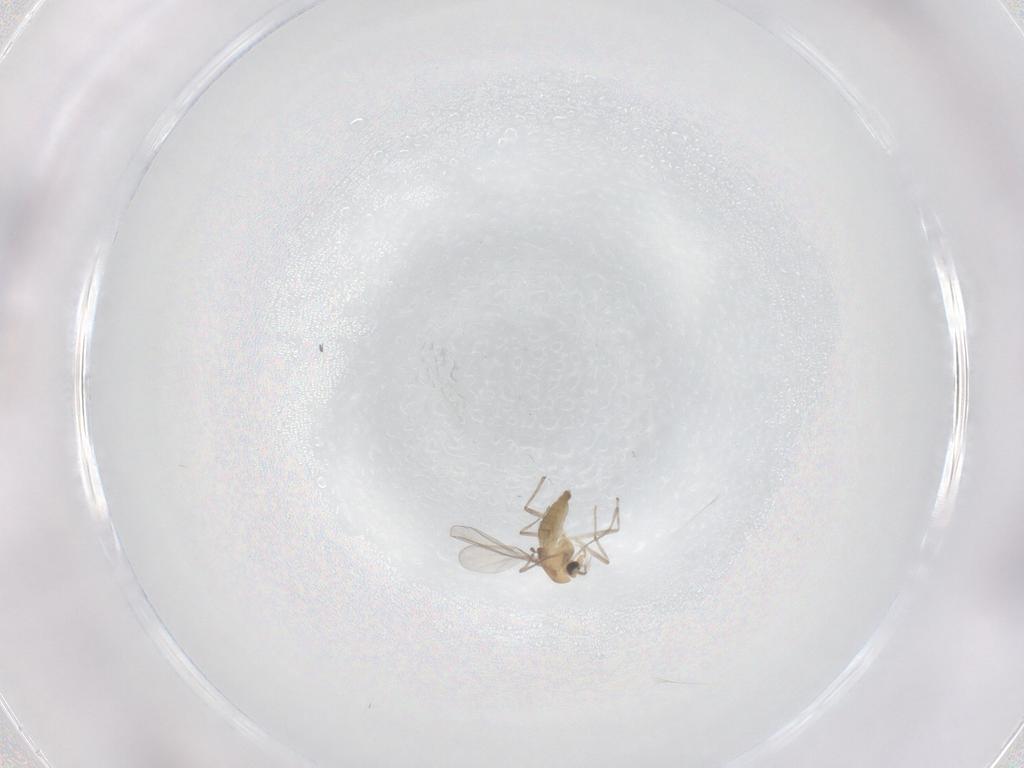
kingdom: Animalia
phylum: Arthropoda
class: Insecta
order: Diptera
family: Chironomidae
